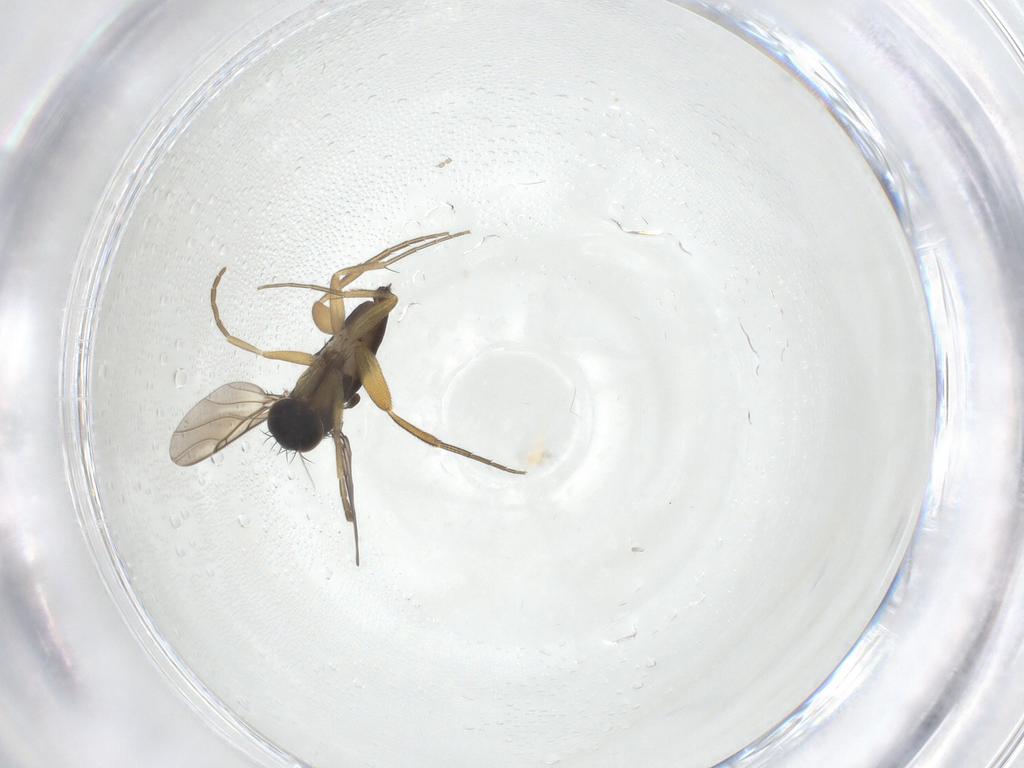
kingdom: Animalia
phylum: Arthropoda
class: Insecta
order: Diptera
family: Cecidomyiidae
